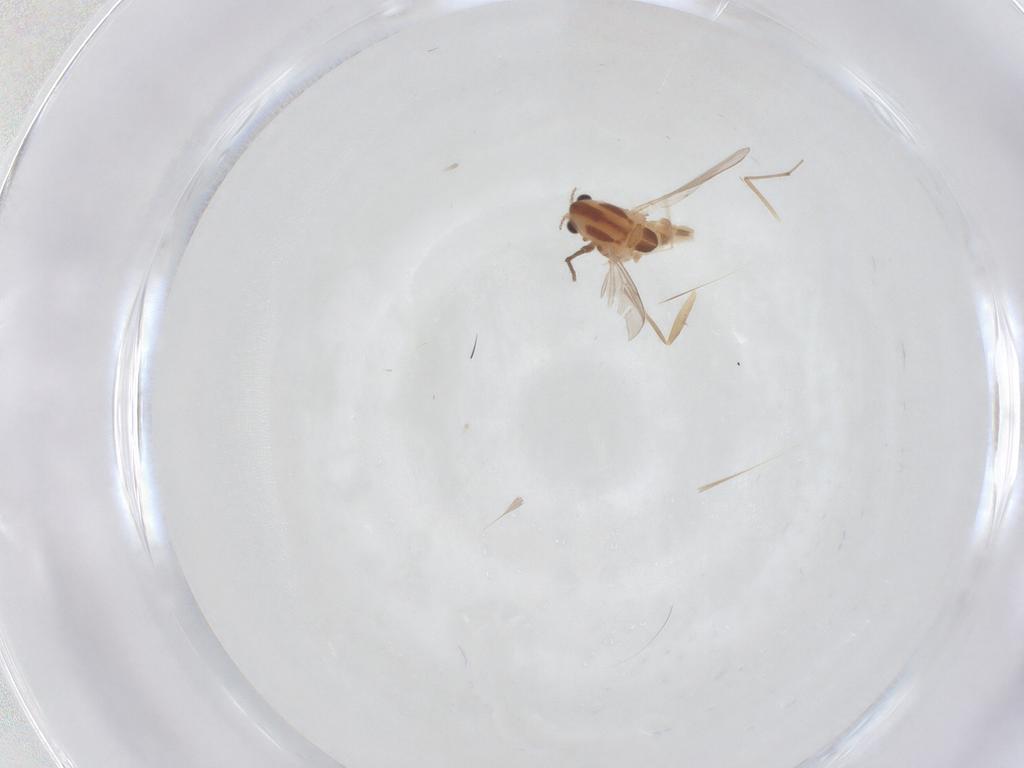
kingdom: Animalia
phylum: Arthropoda
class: Insecta
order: Diptera
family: Chironomidae
